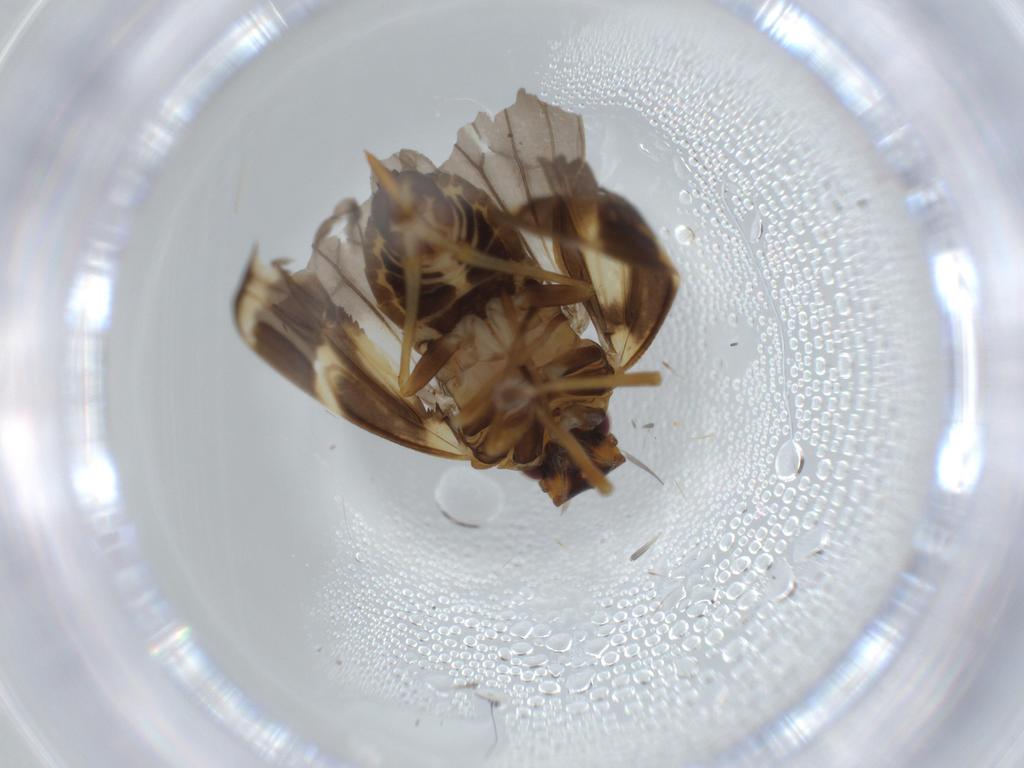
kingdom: Animalia
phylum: Arthropoda
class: Insecta
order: Hemiptera
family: Cixiidae
